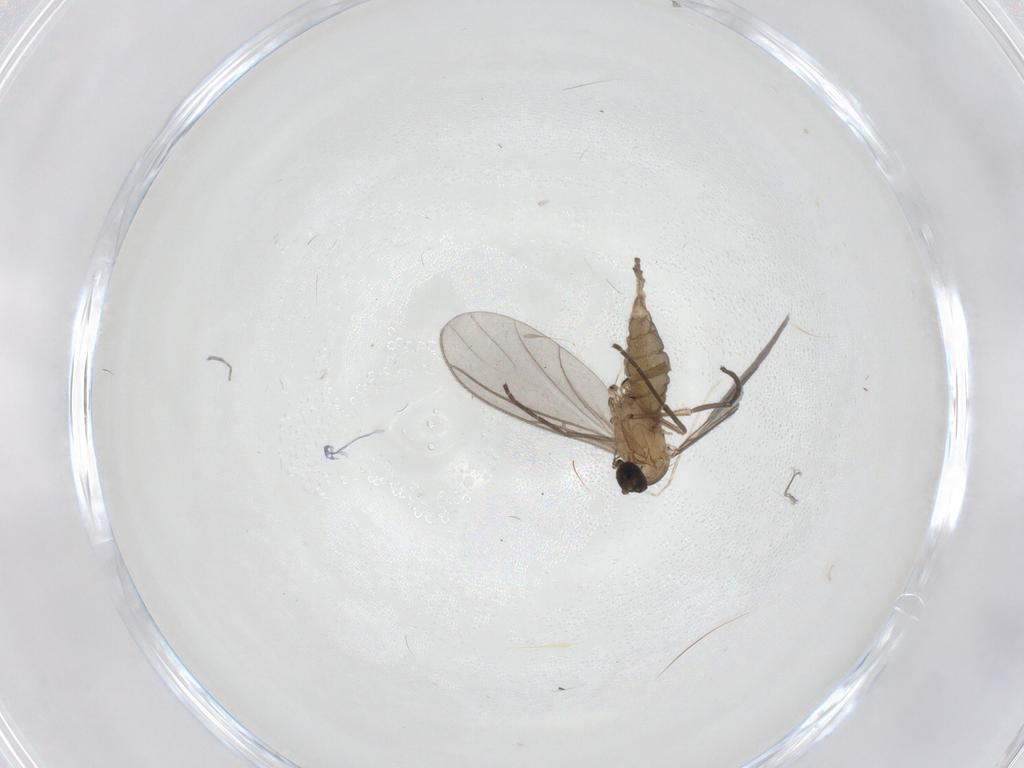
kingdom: Animalia
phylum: Arthropoda
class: Insecta
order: Diptera
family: Sciaridae
